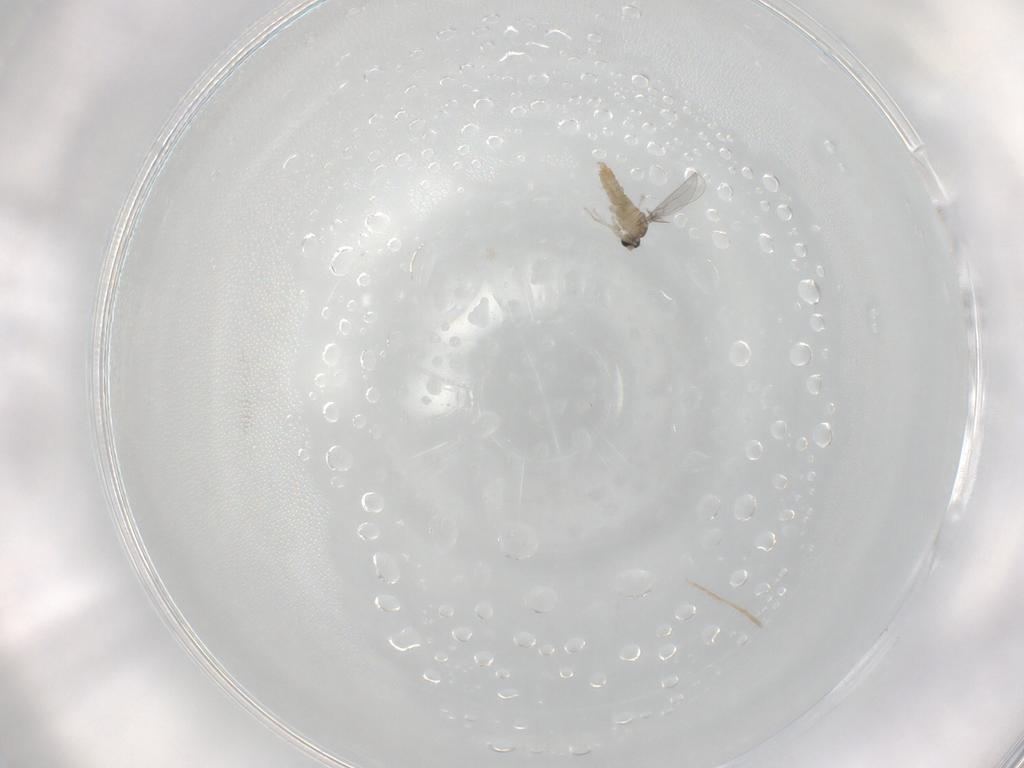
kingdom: Animalia
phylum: Arthropoda
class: Insecta
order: Diptera
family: Cecidomyiidae
